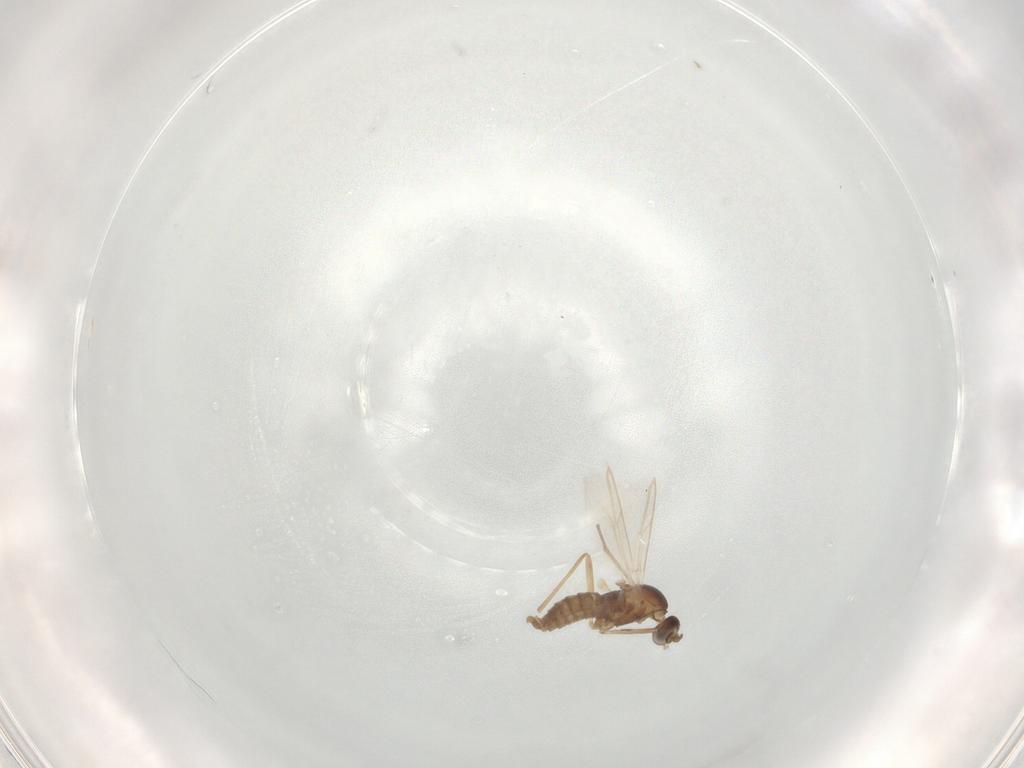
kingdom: Animalia
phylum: Arthropoda
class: Insecta
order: Diptera
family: Cecidomyiidae
